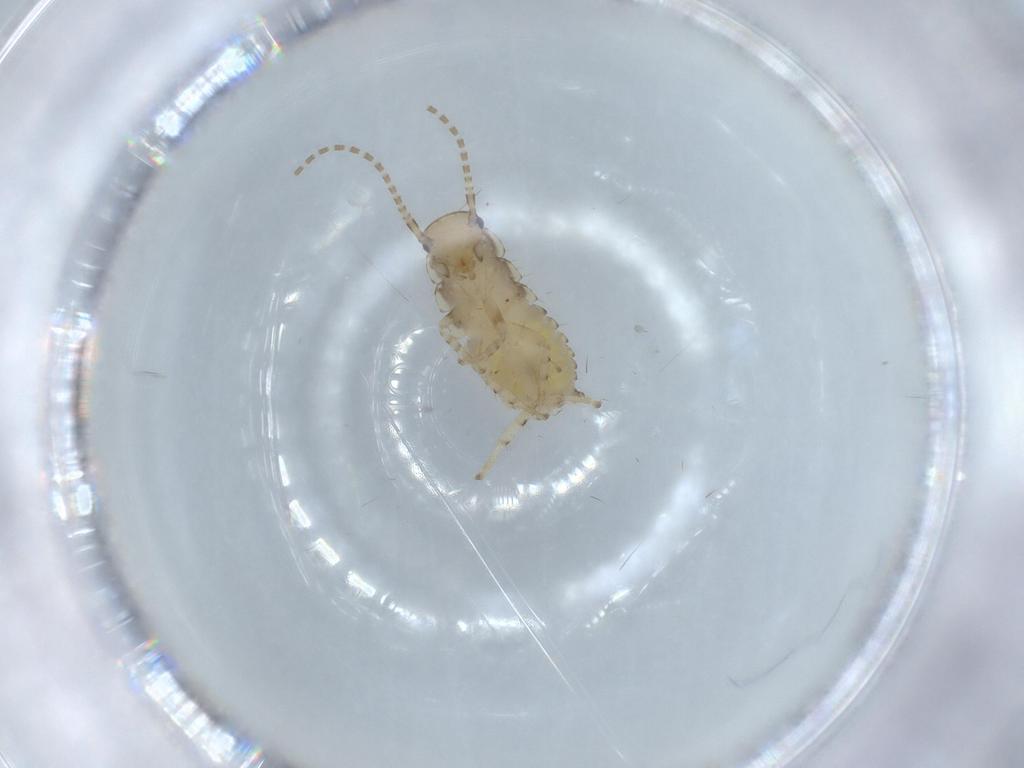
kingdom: Animalia
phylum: Arthropoda
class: Insecta
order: Blattodea
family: Ectobiidae
